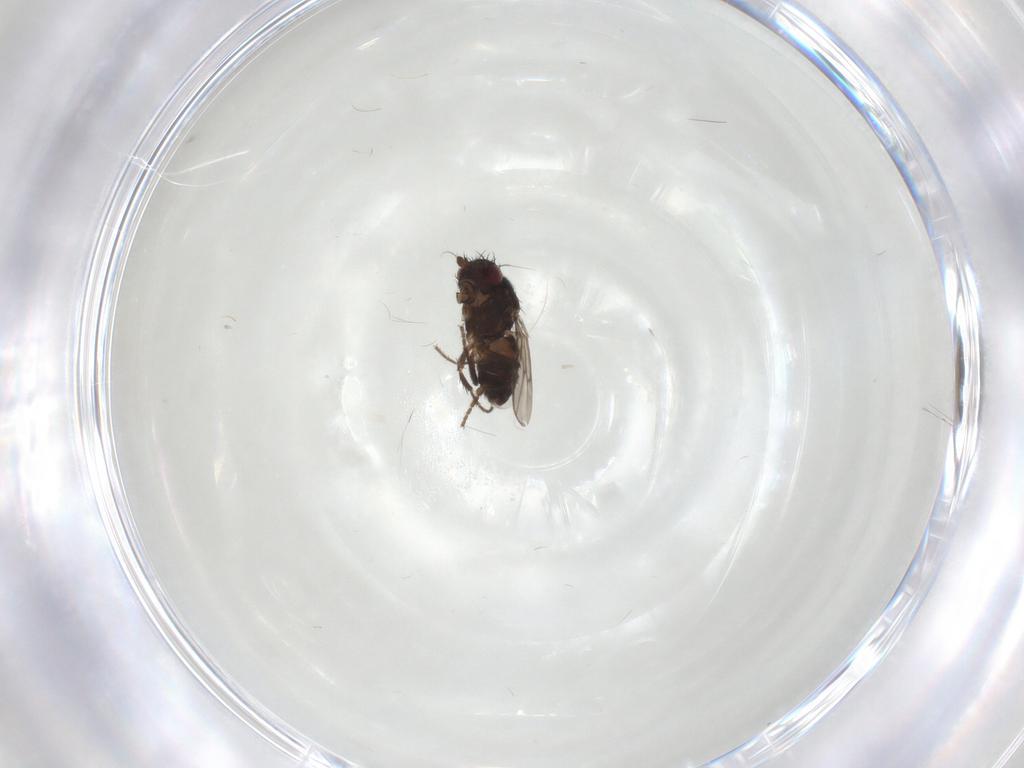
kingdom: Animalia
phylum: Arthropoda
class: Insecta
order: Diptera
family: Sphaeroceridae
